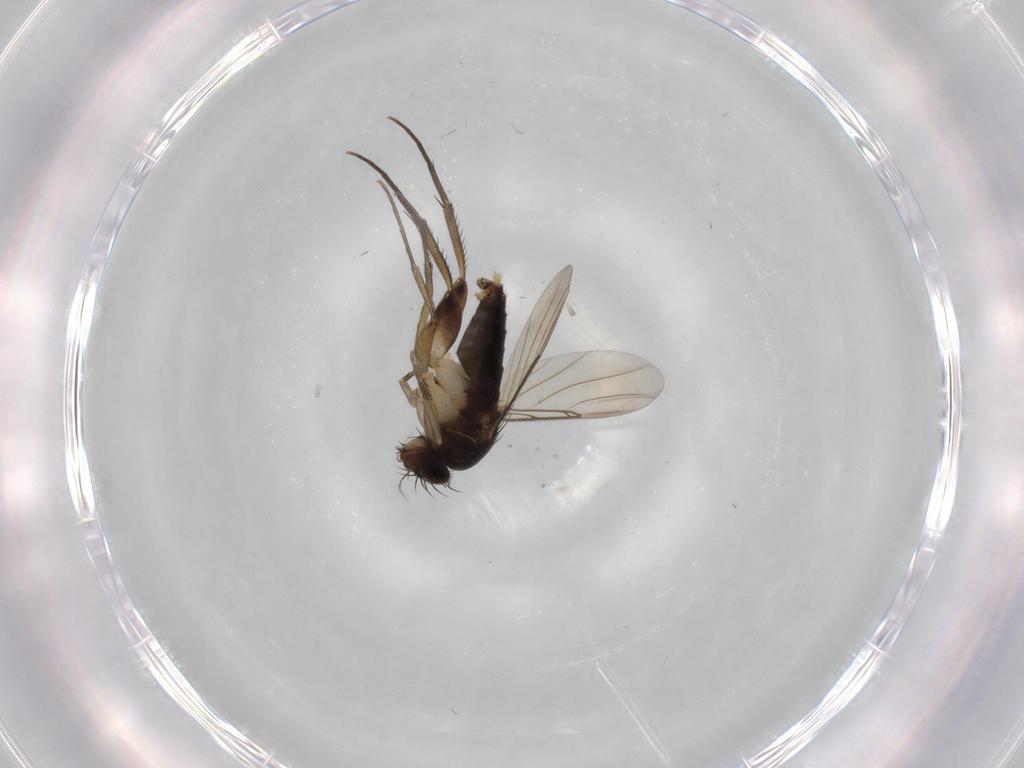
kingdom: Animalia
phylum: Arthropoda
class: Insecta
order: Diptera
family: Phoridae
